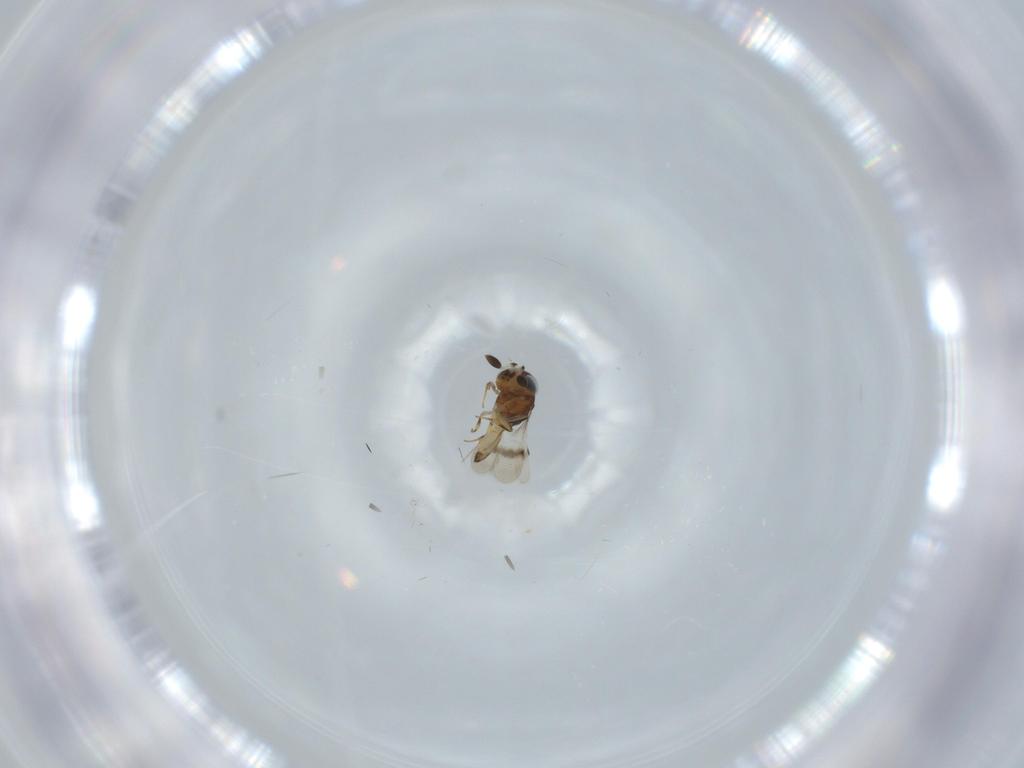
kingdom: Animalia
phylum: Arthropoda
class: Arachnida
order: Araneae
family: Pholcidae
